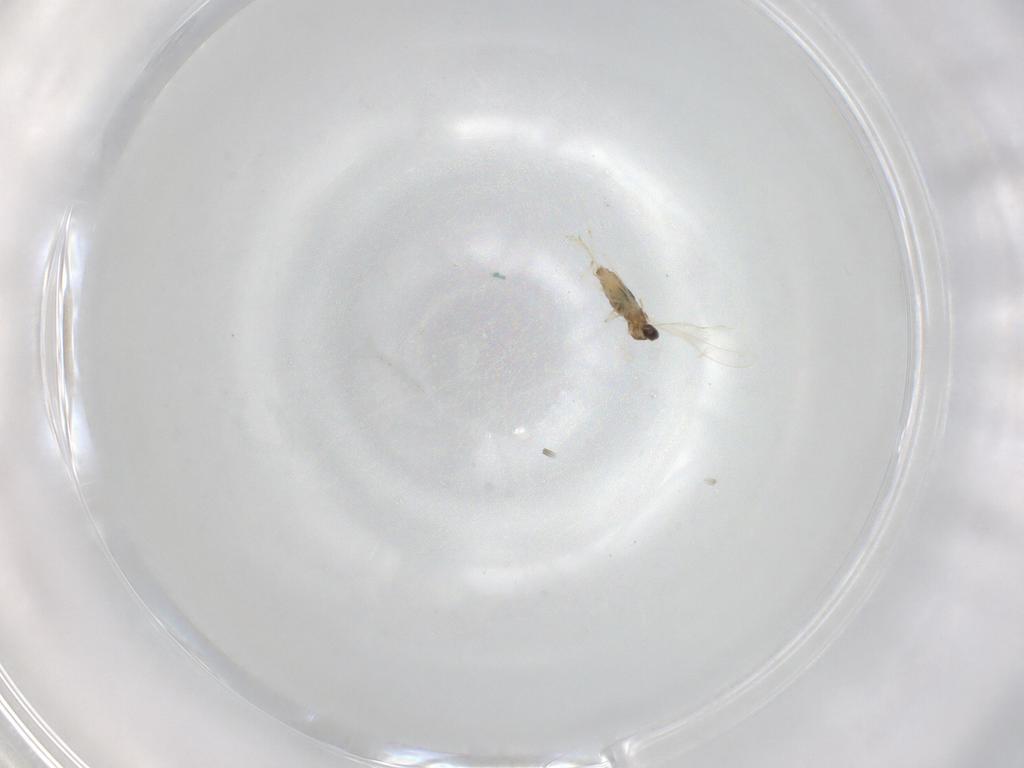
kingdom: Animalia
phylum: Arthropoda
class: Insecta
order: Diptera
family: Cecidomyiidae
